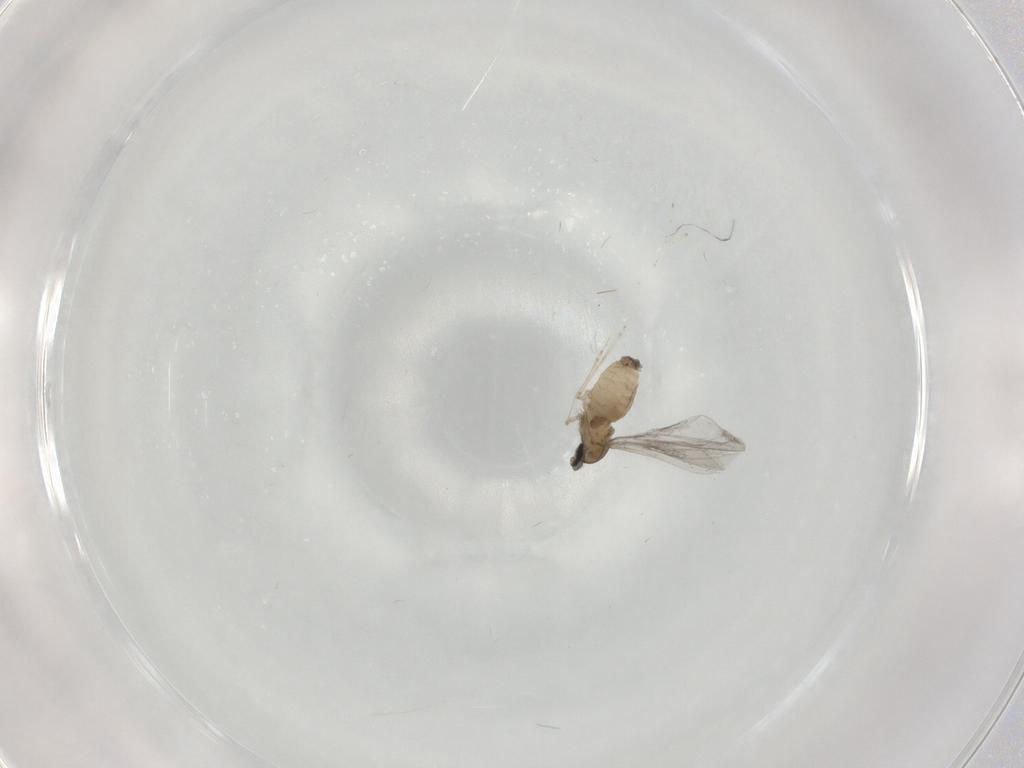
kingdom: Animalia
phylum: Arthropoda
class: Insecta
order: Diptera
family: Cecidomyiidae
